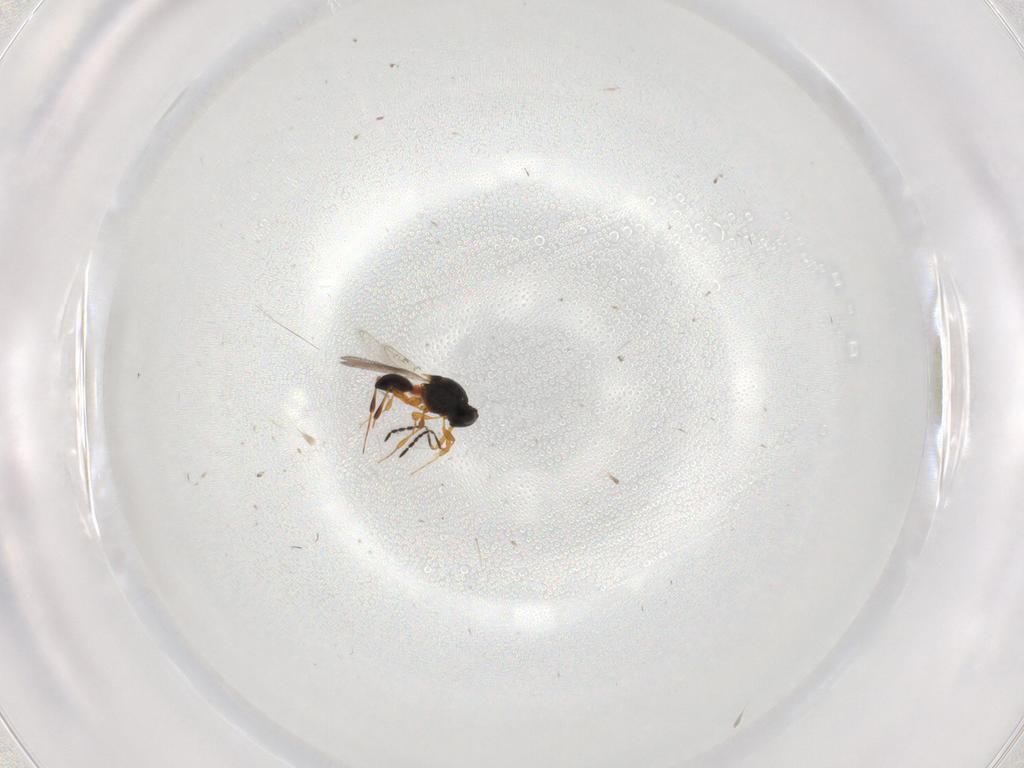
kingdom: Animalia
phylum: Arthropoda
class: Insecta
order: Hymenoptera
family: Platygastridae
